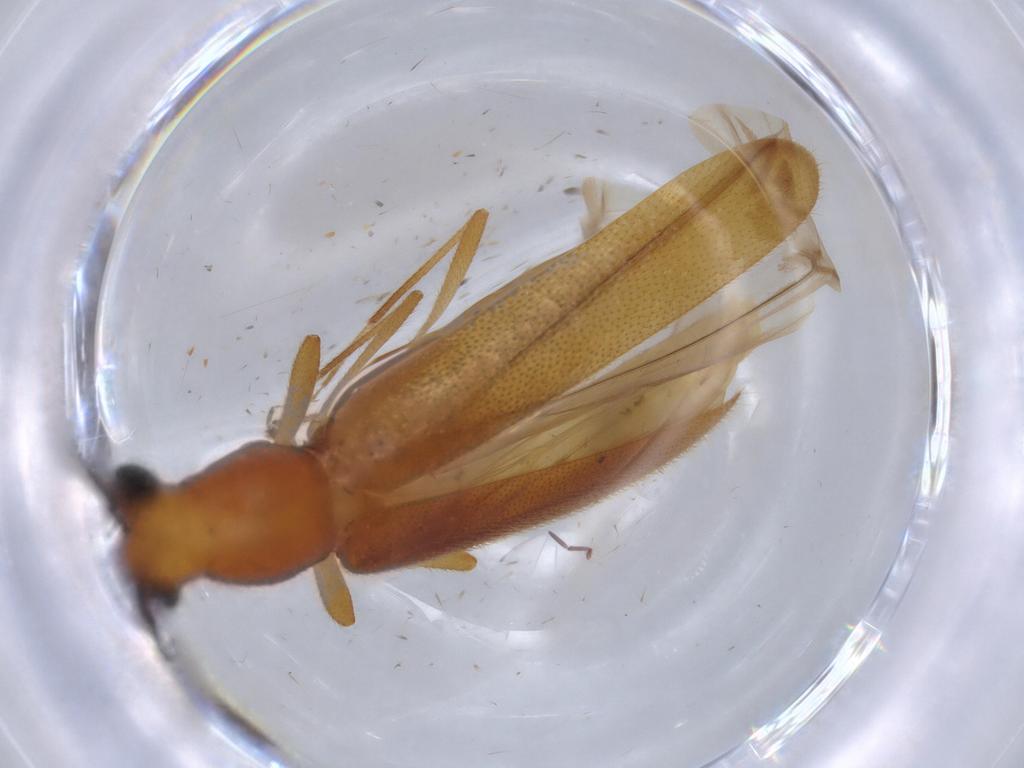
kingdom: Animalia
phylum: Arthropoda
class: Insecta
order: Coleoptera
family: Cerambycidae
